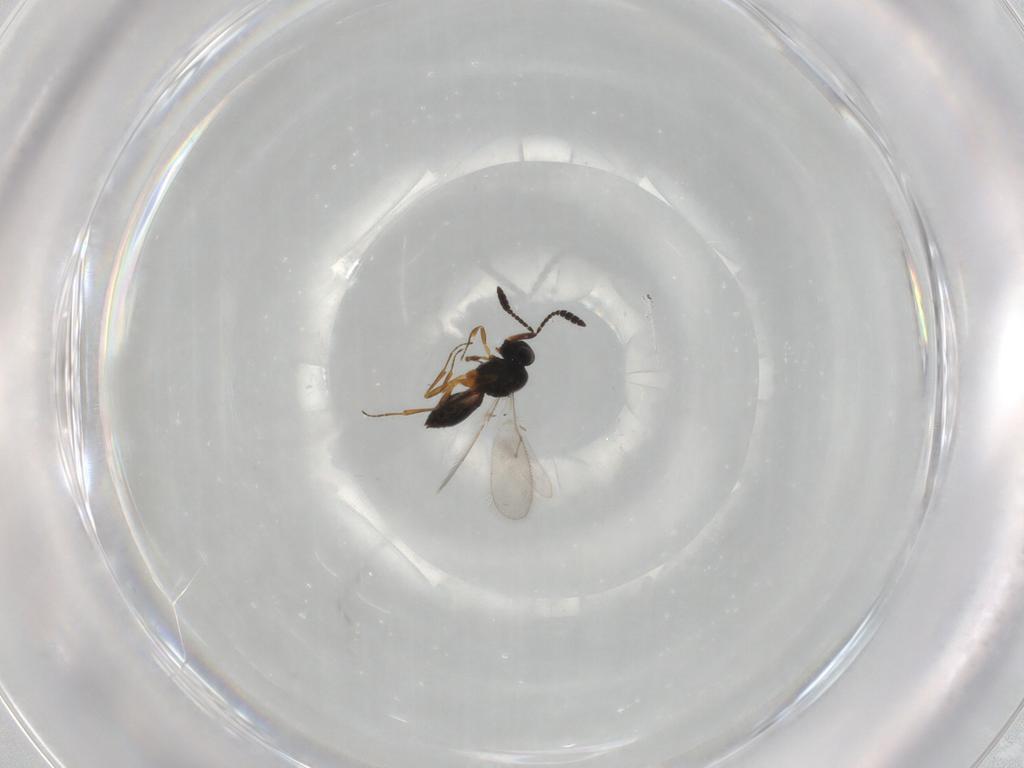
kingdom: Animalia
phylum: Arthropoda
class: Insecta
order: Hymenoptera
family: Scelionidae
